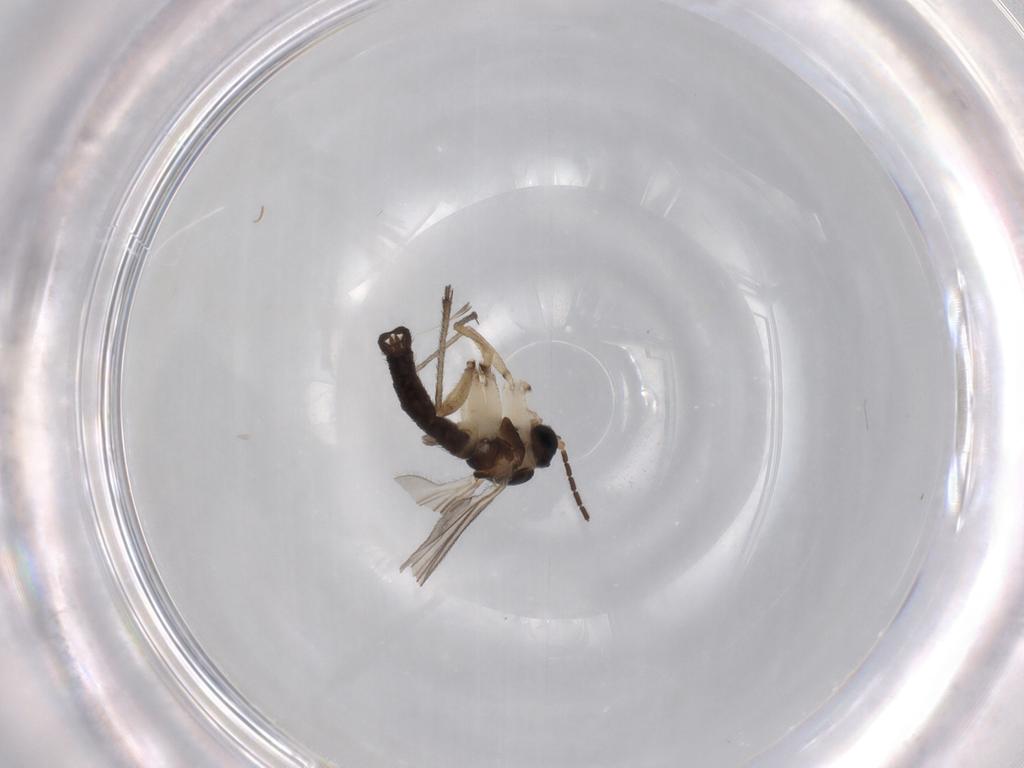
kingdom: Animalia
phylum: Arthropoda
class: Insecta
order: Diptera
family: Sciaridae
